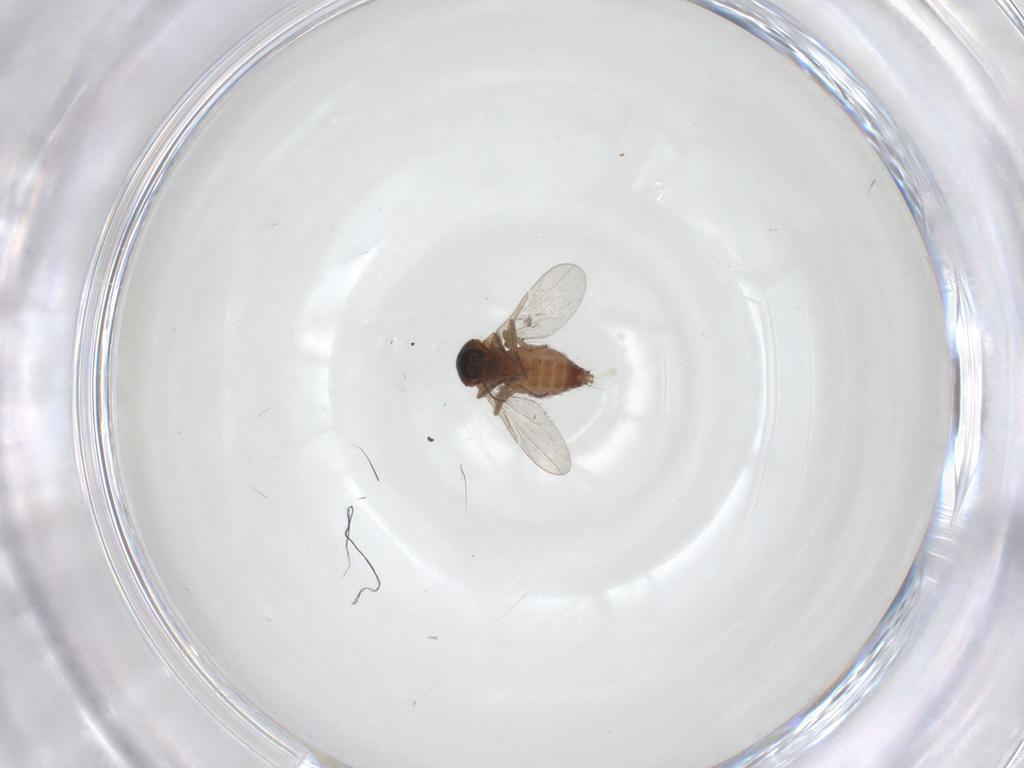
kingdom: Animalia
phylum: Arthropoda
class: Insecta
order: Diptera
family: Ceratopogonidae
